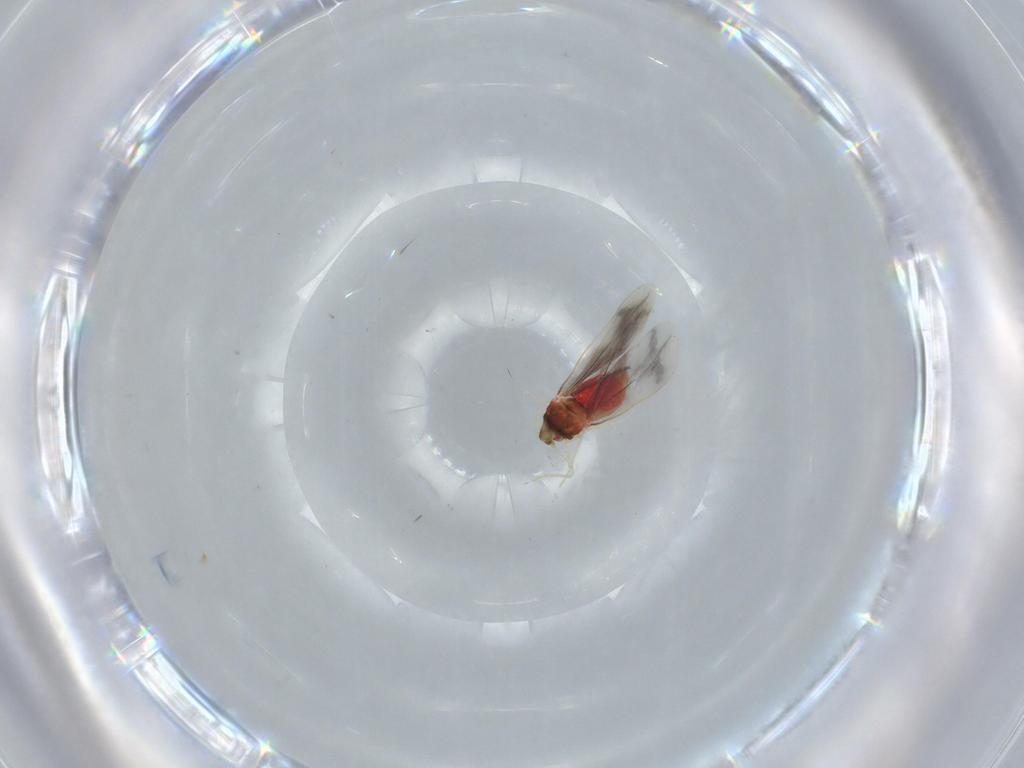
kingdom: Animalia
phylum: Arthropoda
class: Insecta
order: Hemiptera
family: Aleyrodidae
